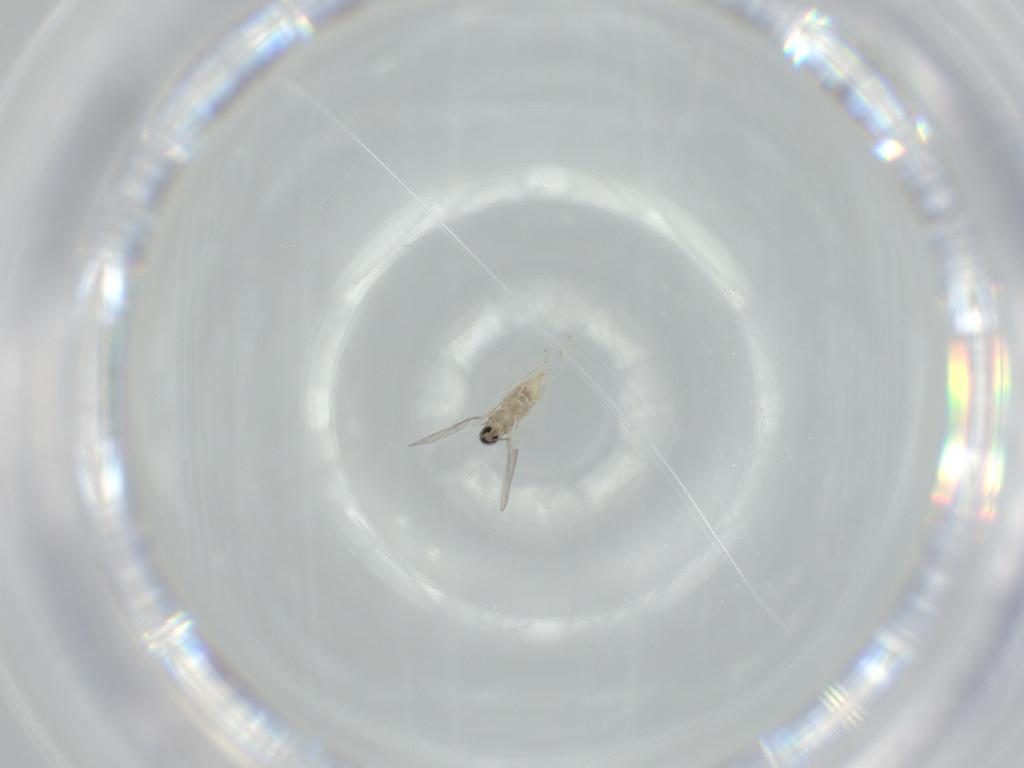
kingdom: Animalia
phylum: Arthropoda
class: Insecta
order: Diptera
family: Cecidomyiidae
